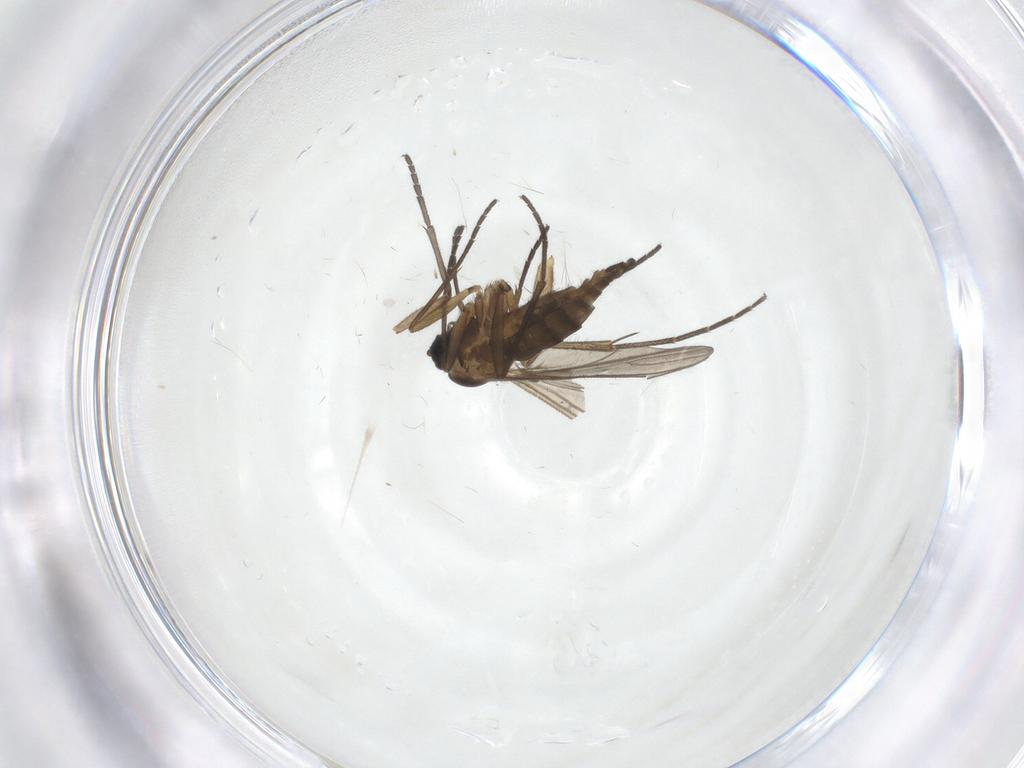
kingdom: Animalia
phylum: Arthropoda
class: Insecta
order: Diptera
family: Sciaridae
